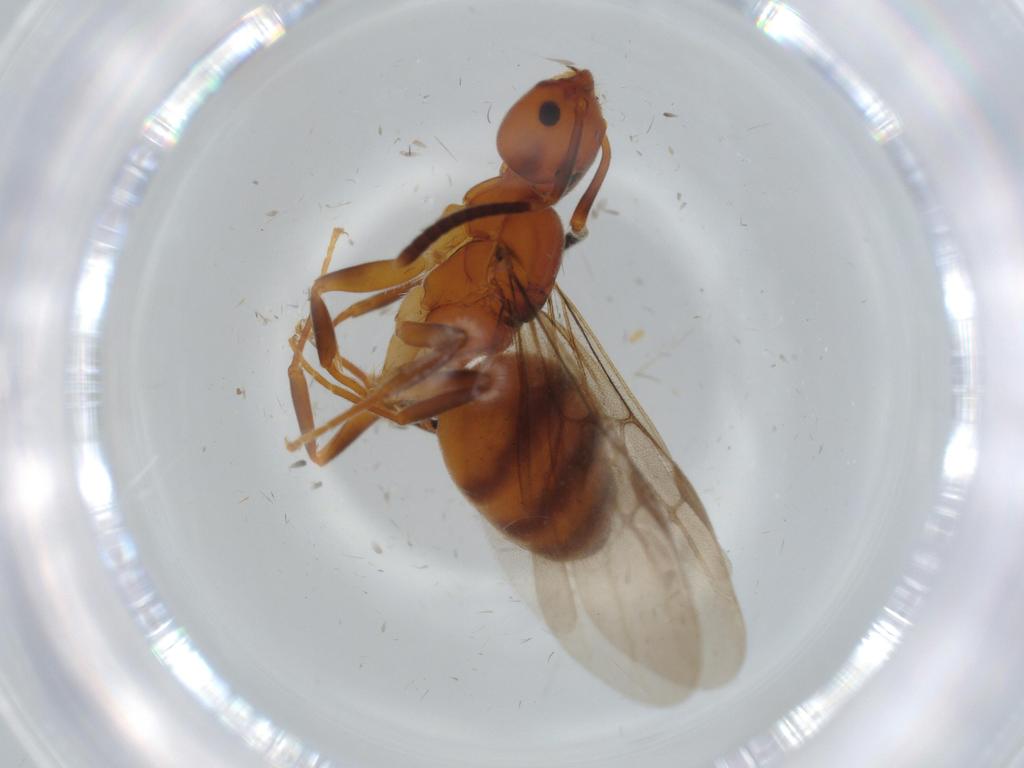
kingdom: Animalia
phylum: Arthropoda
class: Insecta
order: Hymenoptera
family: Formicidae
